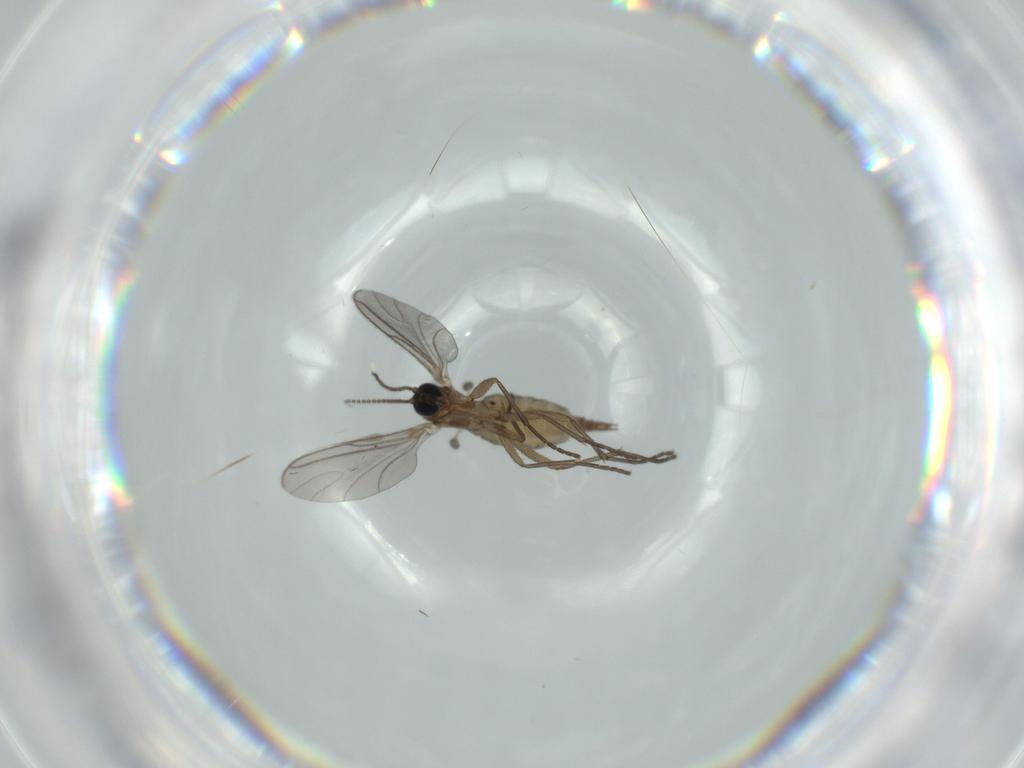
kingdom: Animalia
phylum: Arthropoda
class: Insecta
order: Diptera
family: Sciaridae
